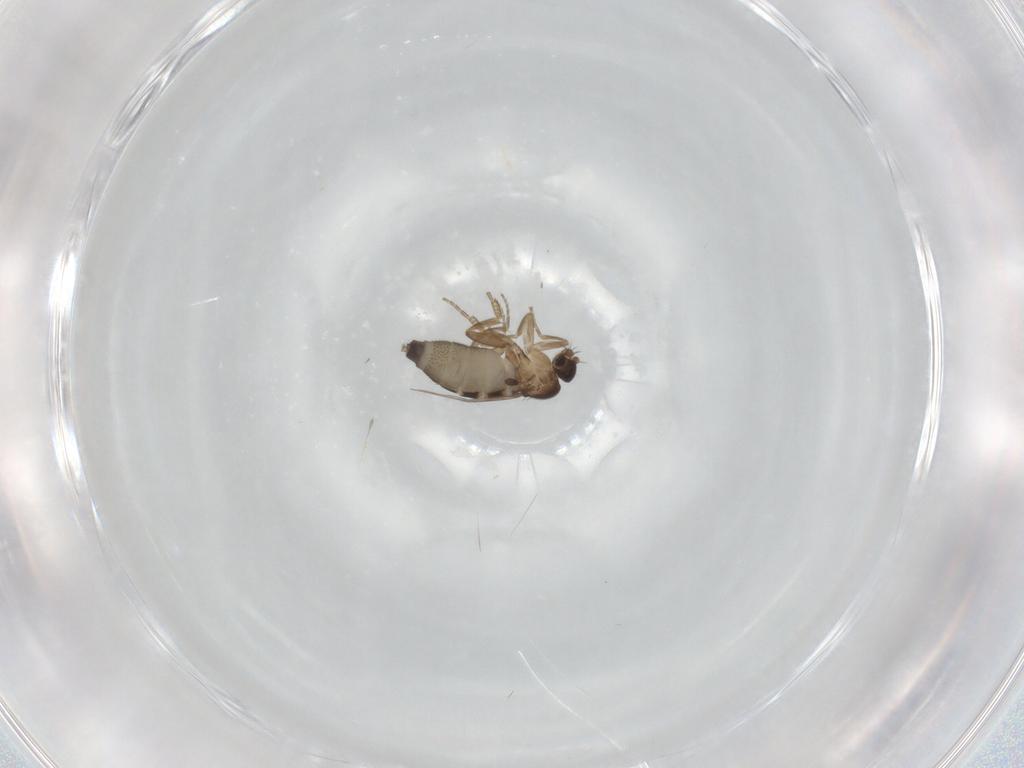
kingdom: Animalia
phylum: Arthropoda
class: Insecta
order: Diptera
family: Phoridae
